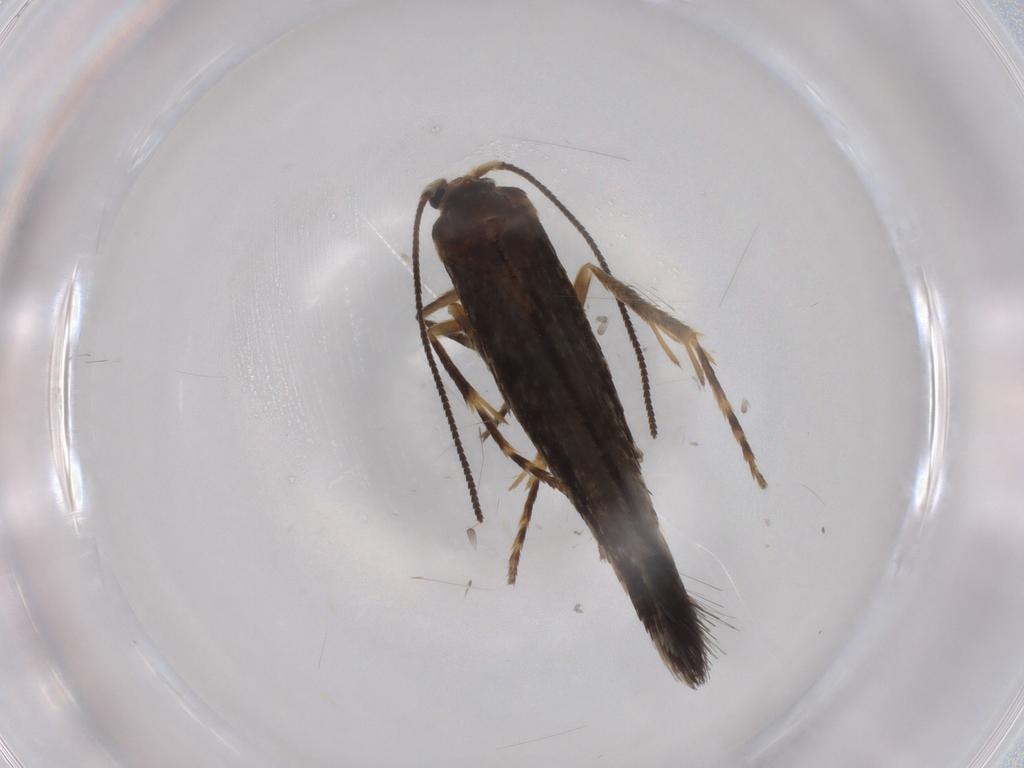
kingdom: Animalia
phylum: Arthropoda
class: Insecta
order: Lepidoptera
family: Nepticulidae
